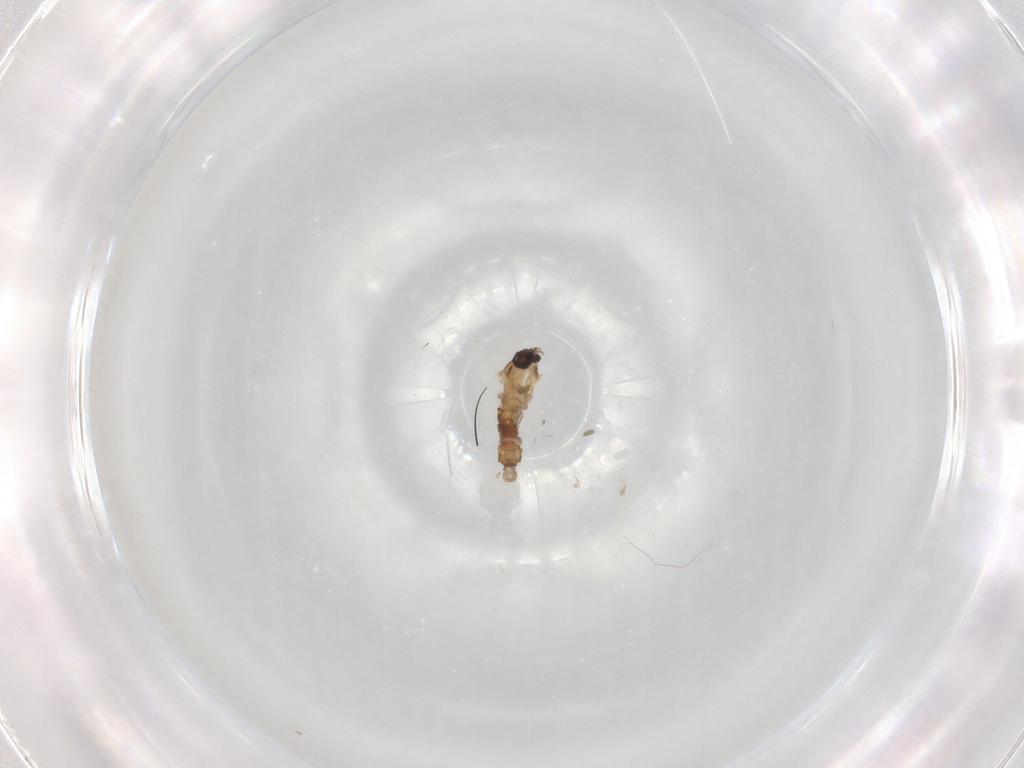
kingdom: Animalia
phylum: Arthropoda
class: Insecta
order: Diptera
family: Psychodidae
